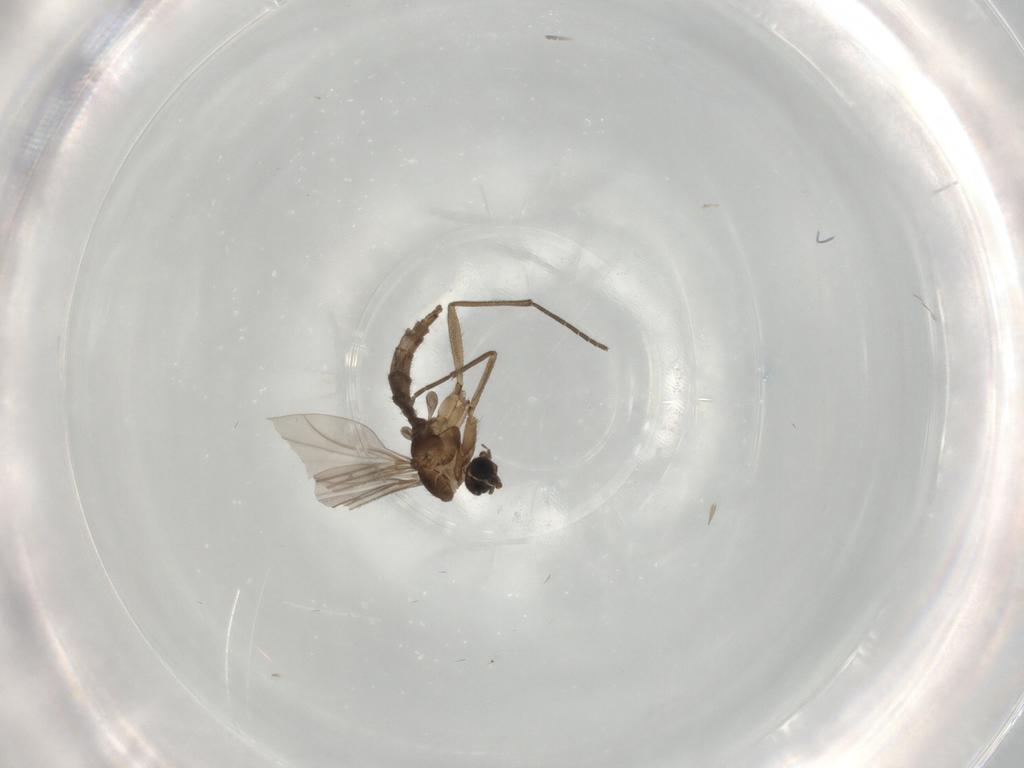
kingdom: Animalia
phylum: Arthropoda
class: Insecta
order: Diptera
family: Sciaridae
